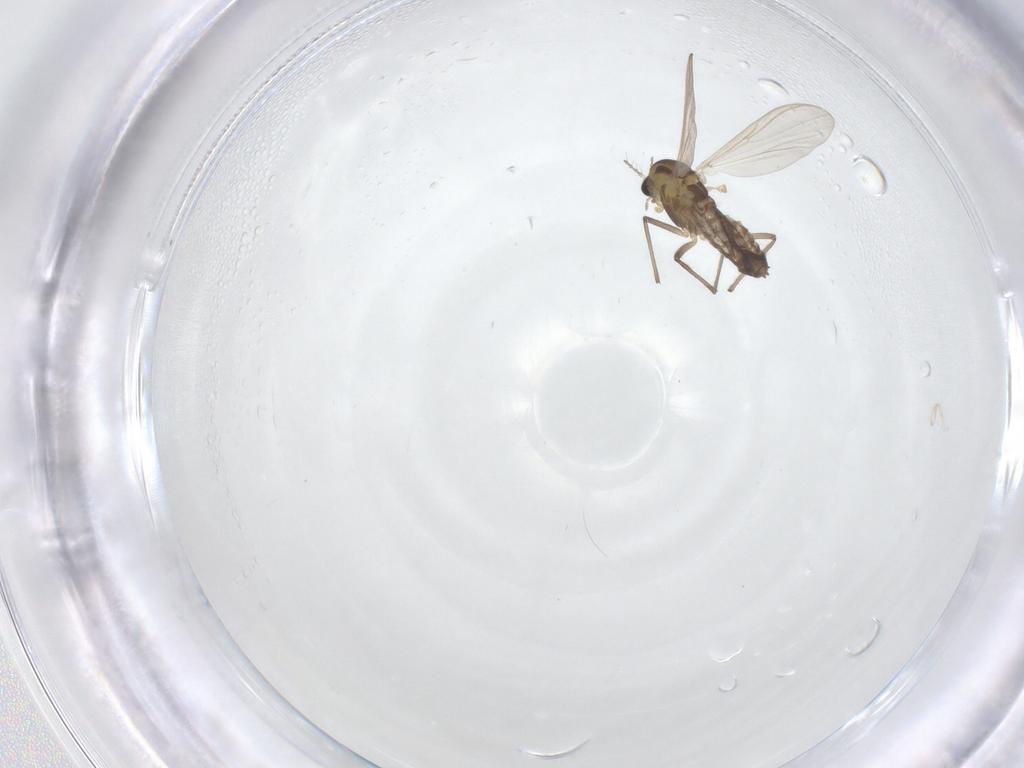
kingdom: Animalia
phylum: Arthropoda
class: Insecta
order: Diptera
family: Chironomidae
